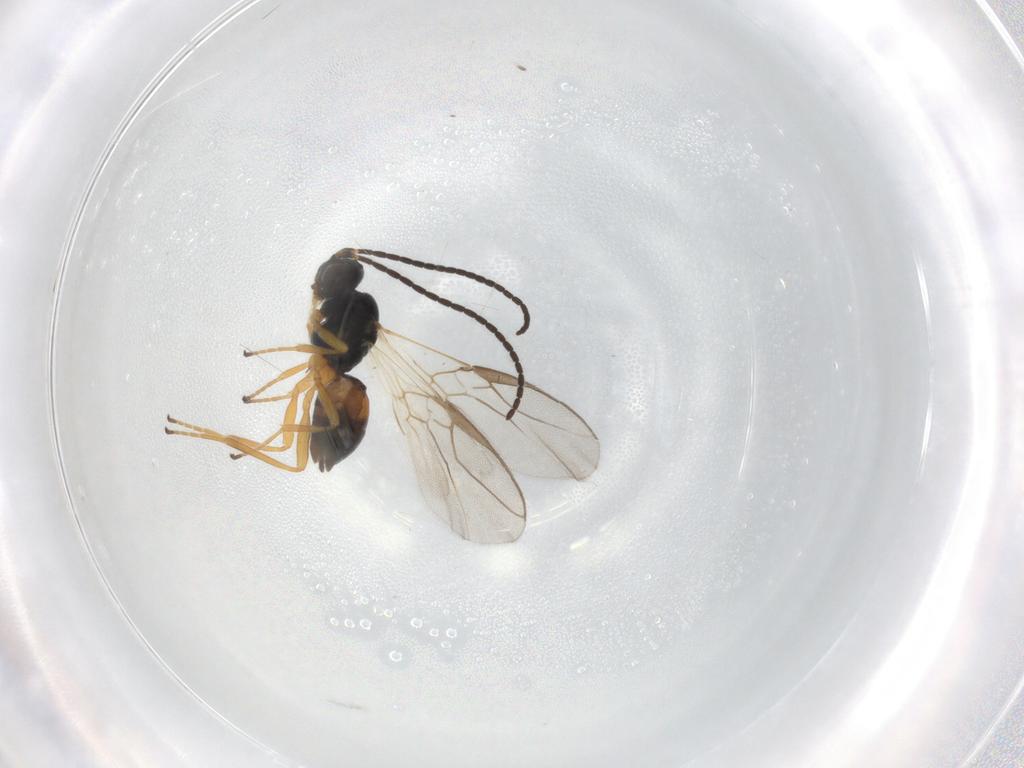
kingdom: Animalia
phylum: Arthropoda
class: Insecta
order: Hymenoptera
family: Braconidae
